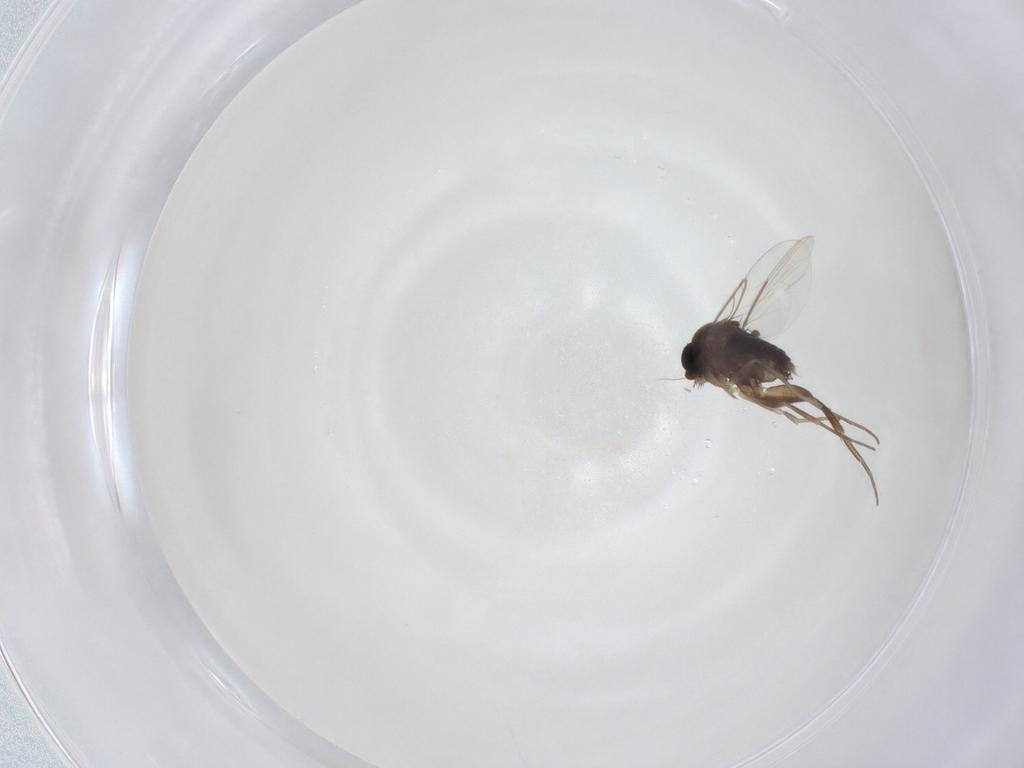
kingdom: Animalia
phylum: Arthropoda
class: Insecta
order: Diptera
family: Phoridae
